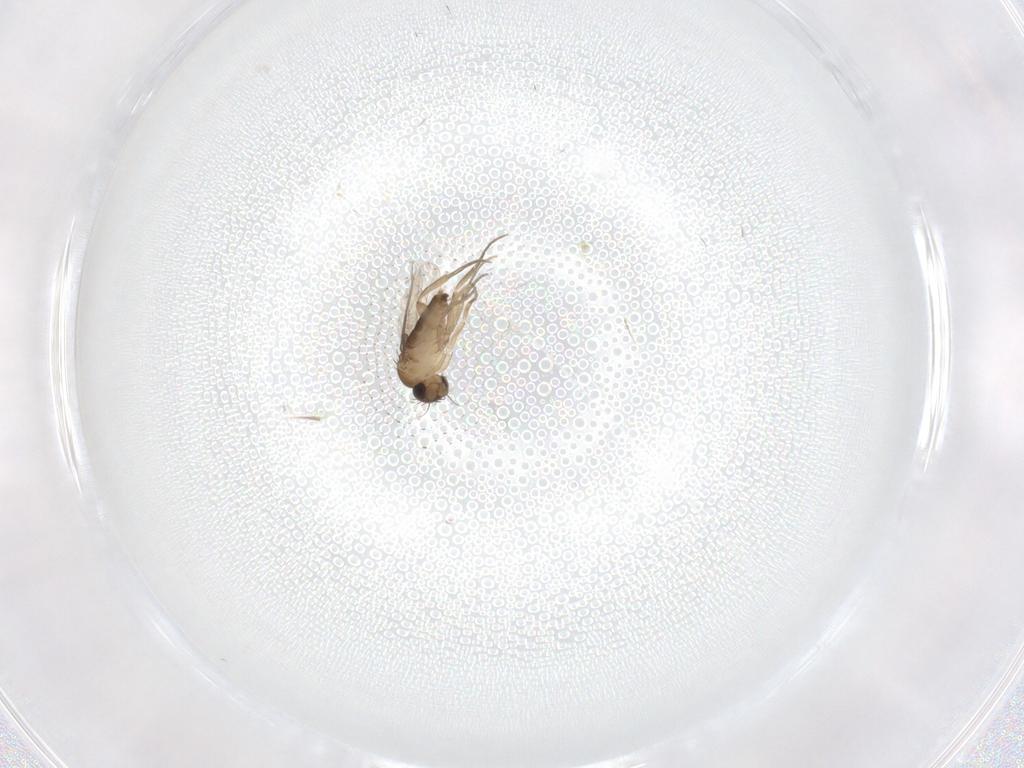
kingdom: Animalia
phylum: Arthropoda
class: Insecta
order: Diptera
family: Phoridae
